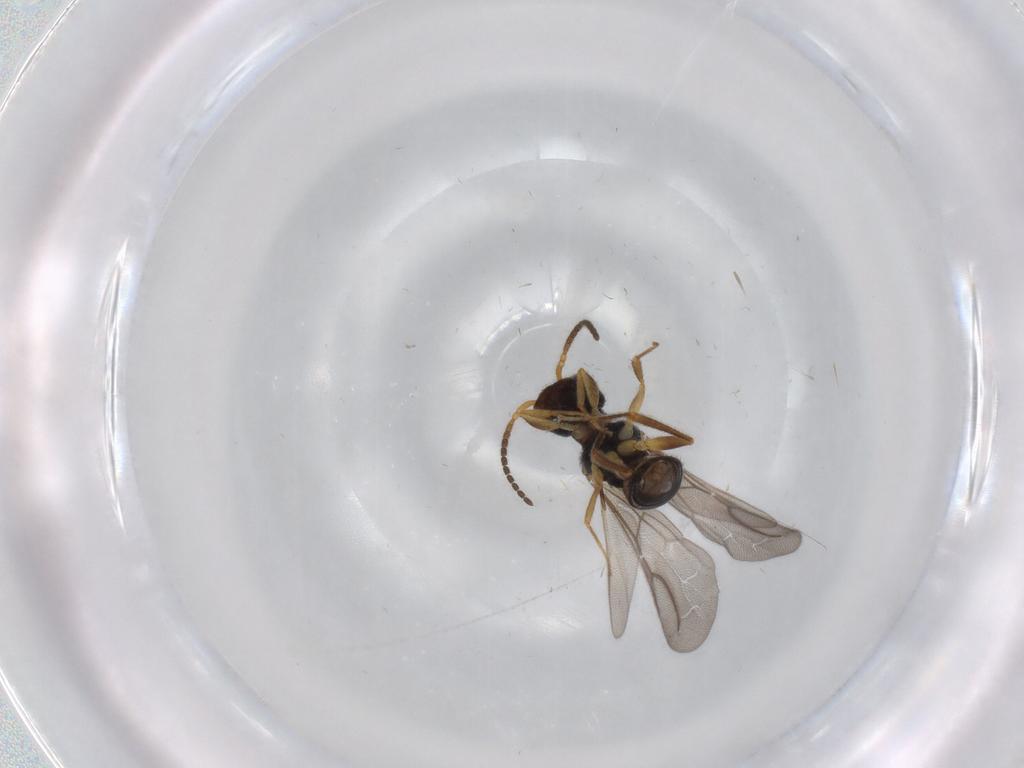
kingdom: Animalia
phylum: Arthropoda
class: Insecta
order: Hymenoptera
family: Bethylidae
